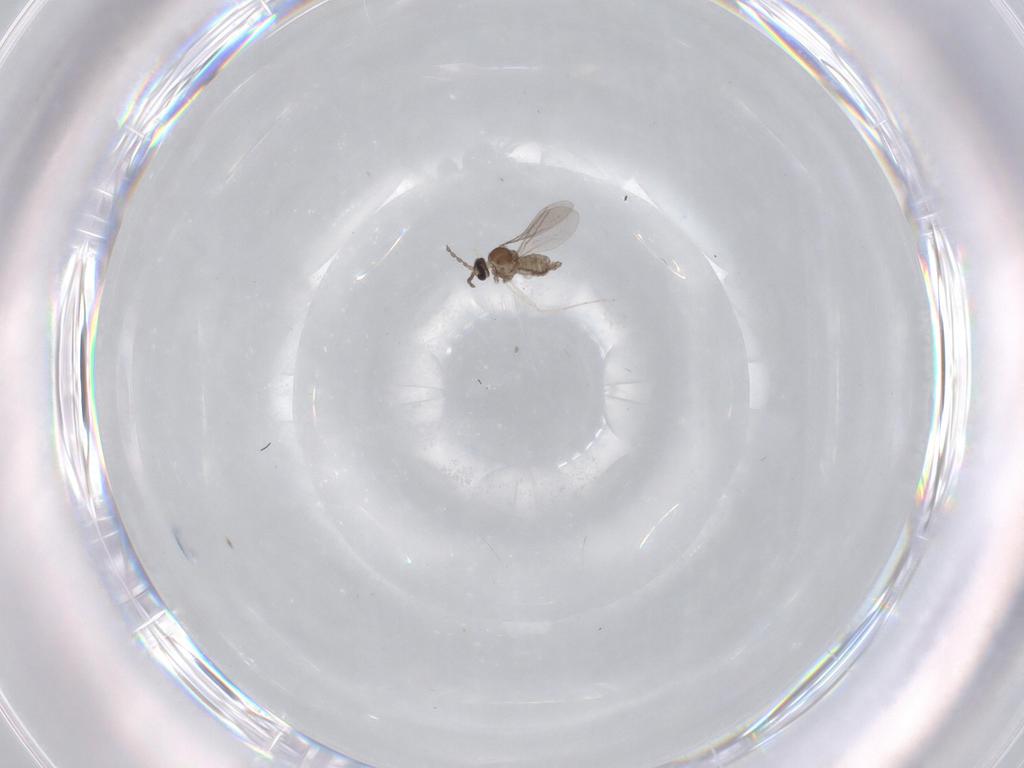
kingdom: Animalia
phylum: Arthropoda
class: Insecta
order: Diptera
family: Cecidomyiidae
